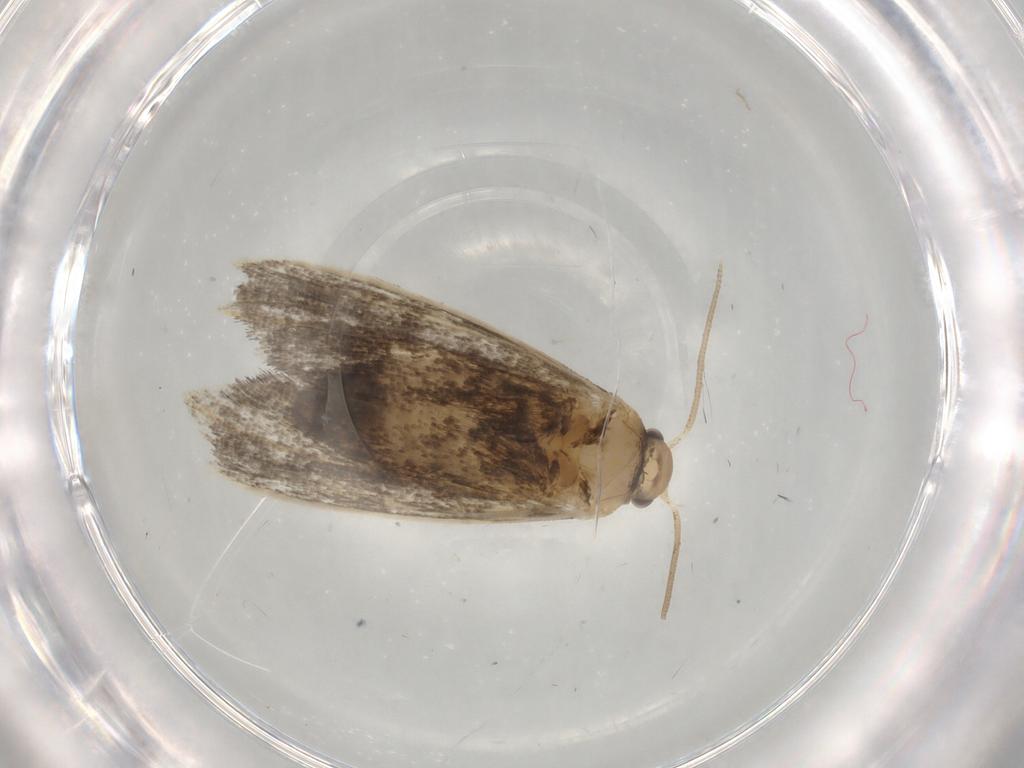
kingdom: Animalia
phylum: Arthropoda
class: Insecta
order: Lepidoptera
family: Dryadaulidae
